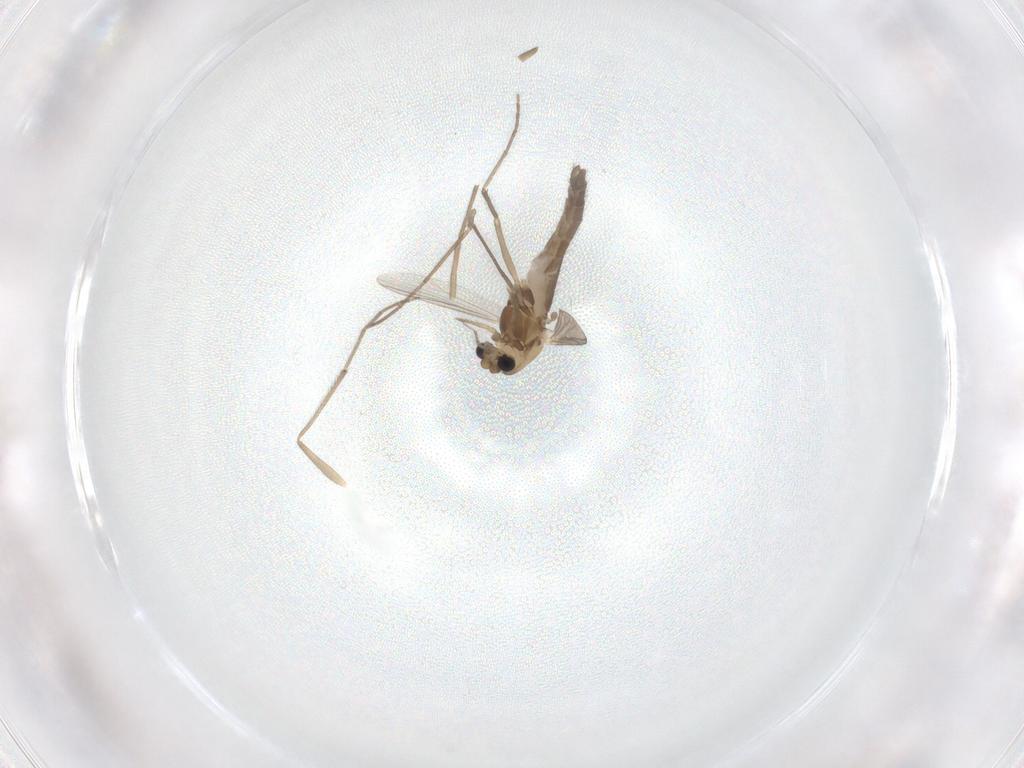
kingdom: Animalia
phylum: Arthropoda
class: Insecta
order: Diptera
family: Chironomidae
